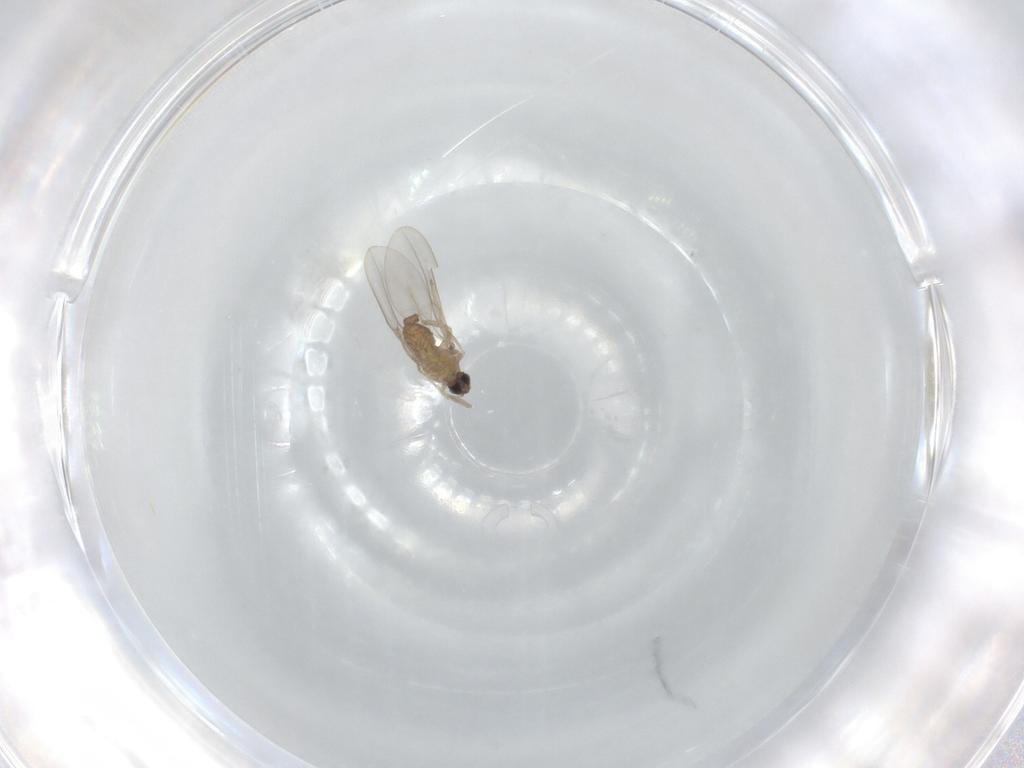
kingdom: Animalia
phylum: Arthropoda
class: Insecta
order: Diptera
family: Cecidomyiidae
